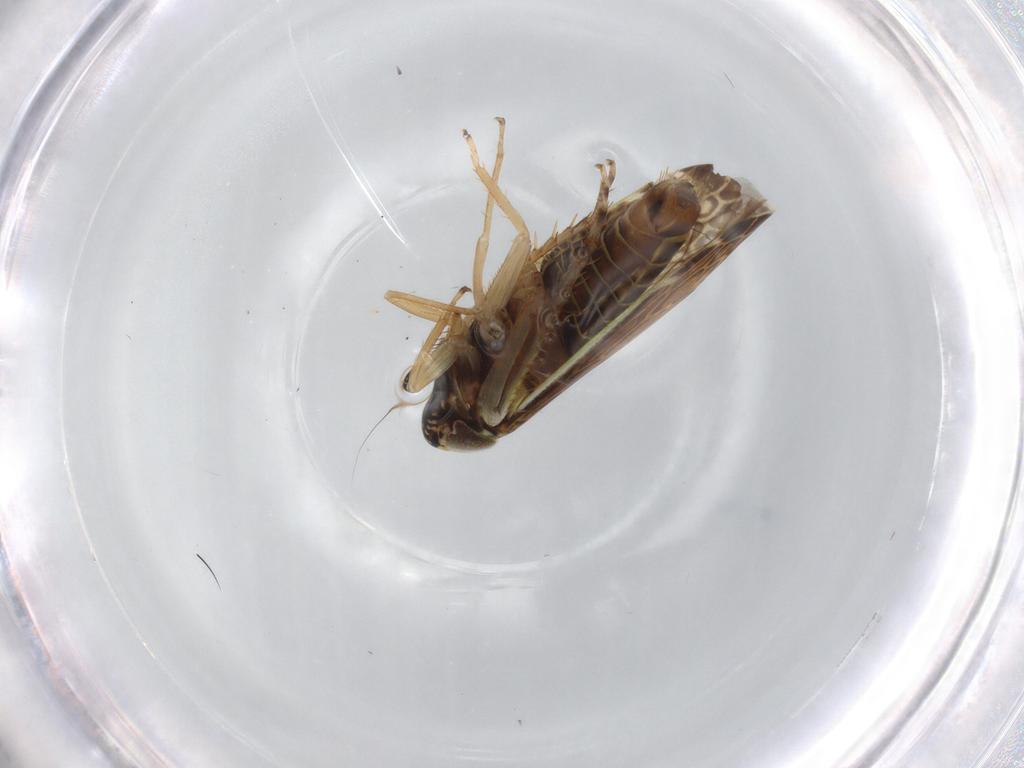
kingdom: Animalia
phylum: Arthropoda
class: Insecta
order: Hemiptera
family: Cicadellidae
